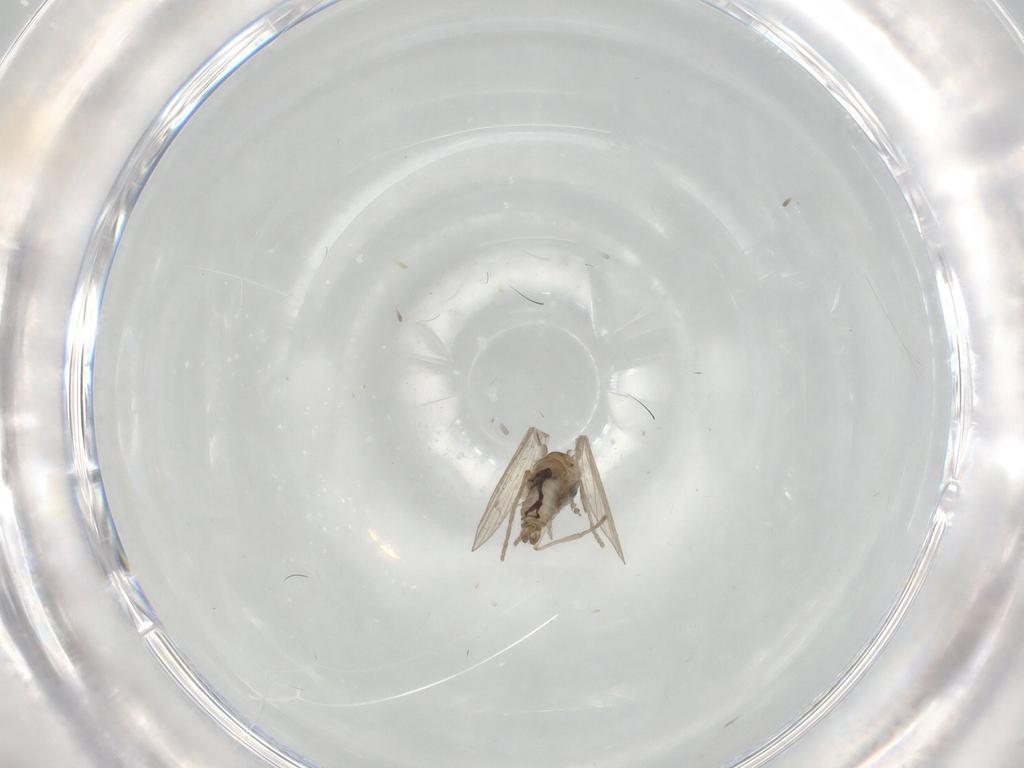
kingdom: Animalia
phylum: Arthropoda
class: Insecta
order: Diptera
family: Psychodidae
